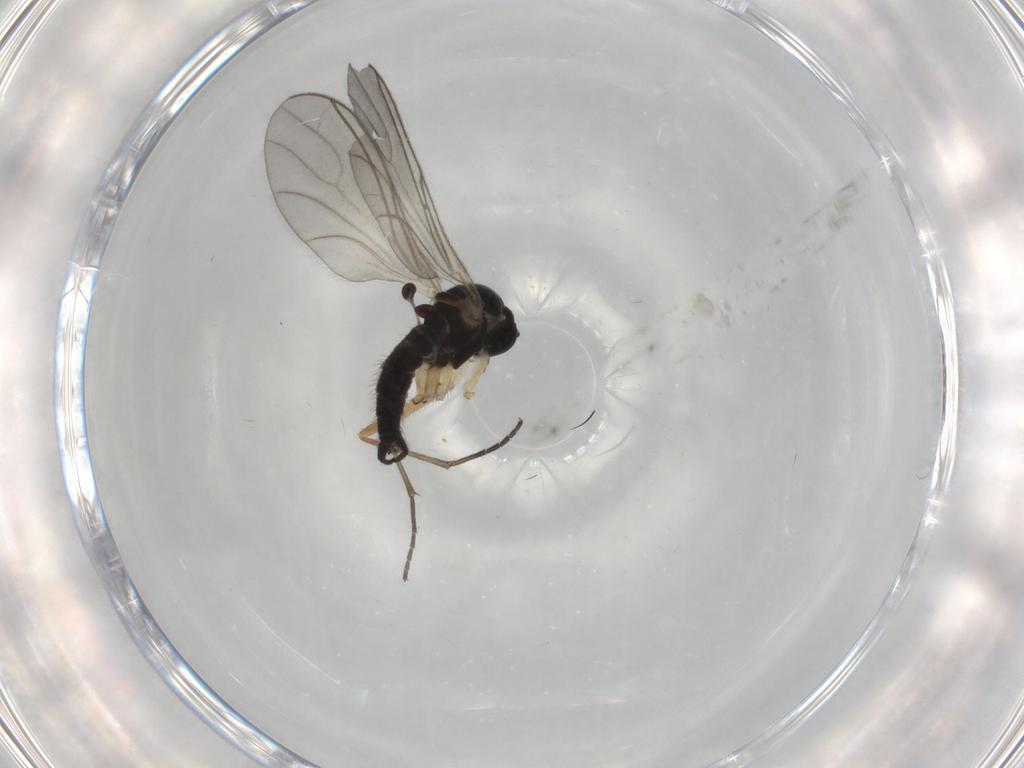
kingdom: Animalia
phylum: Arthropoda
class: Insecta
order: Diptera
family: Sciaridae
